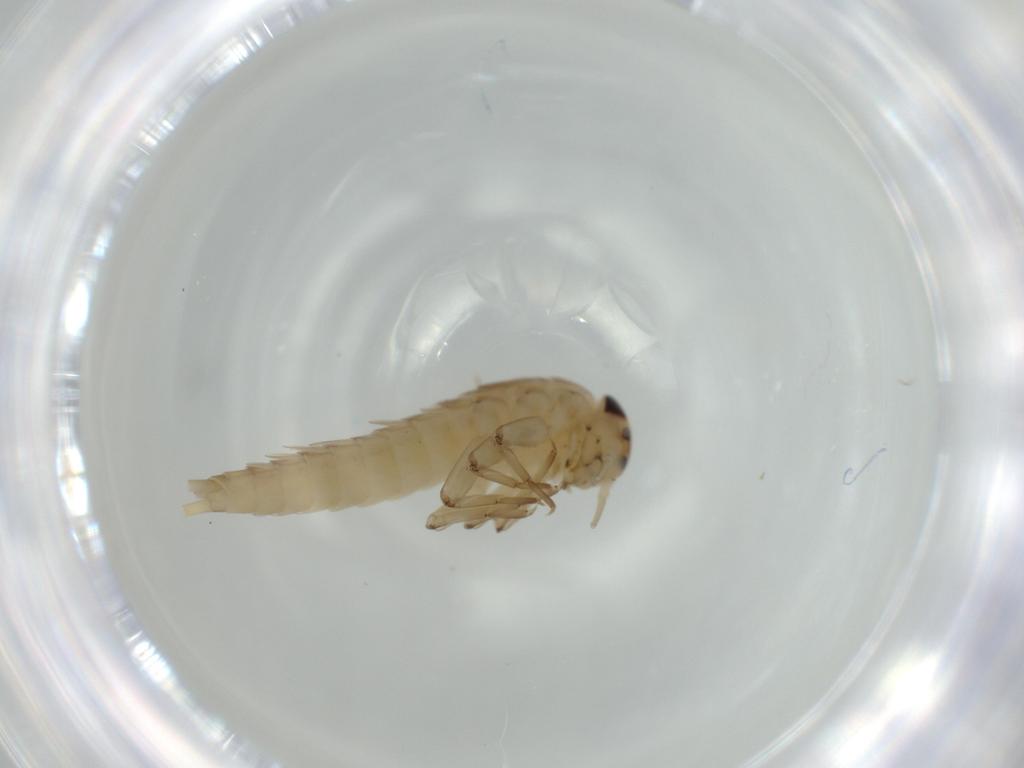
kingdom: Animalia
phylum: Arthropoda
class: Insecta
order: Ephemeroptera
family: Baetidae
